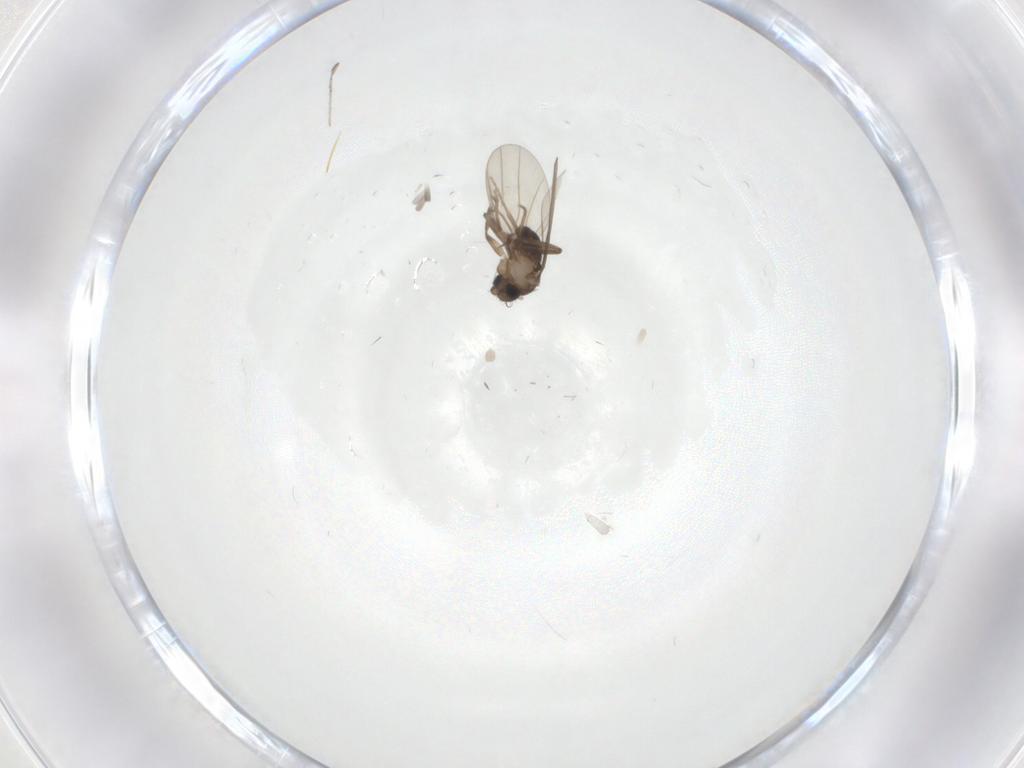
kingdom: Animalia
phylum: Arthropoda
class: Insecta
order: Diptera
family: Phoridae
